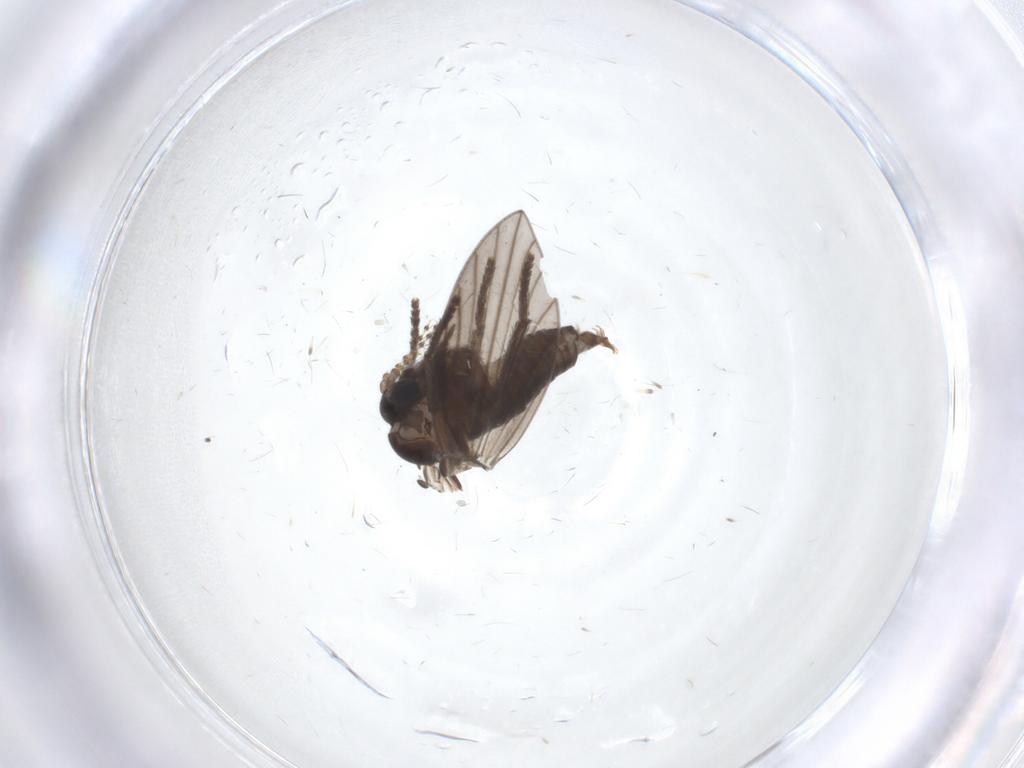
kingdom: Animalia
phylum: Arthropoda
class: Insecta
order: Diptera
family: Psychodidae
